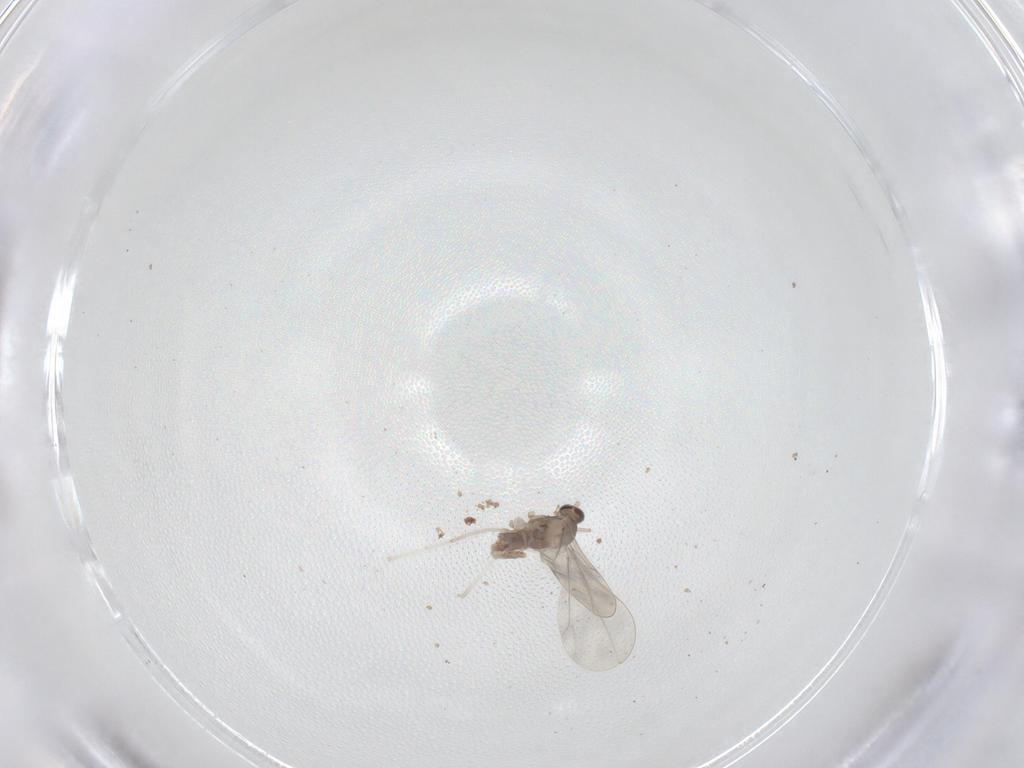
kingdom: Animalia
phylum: Arthropoda
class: Insecta
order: Diptera
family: Cecidomyiidae
